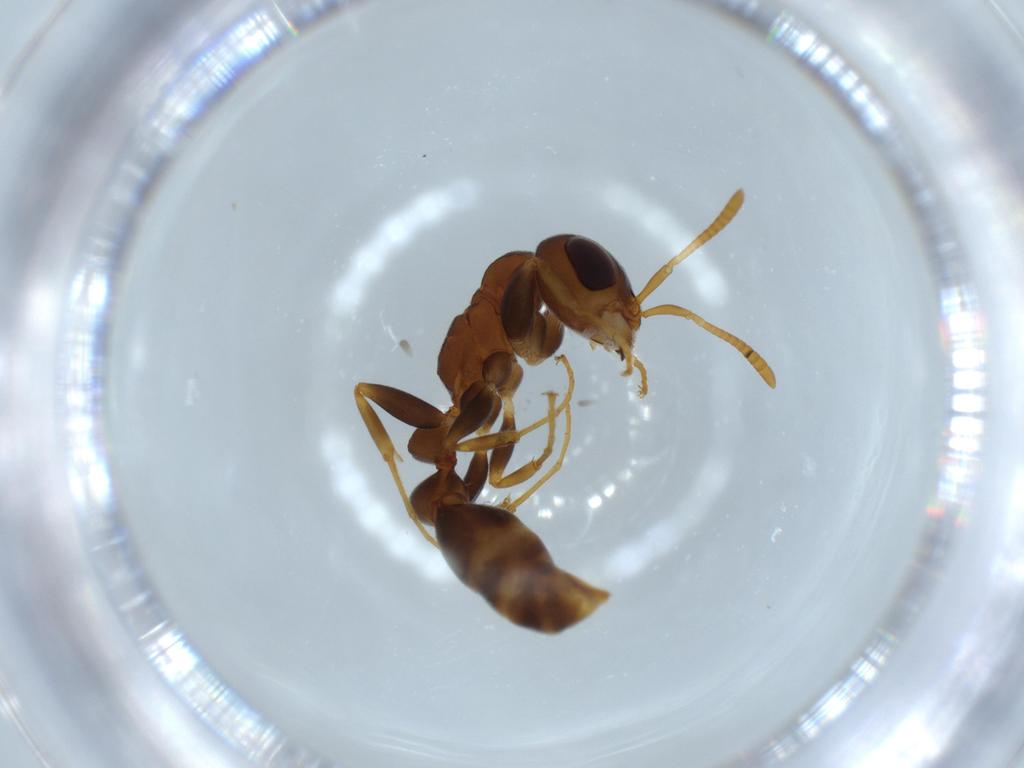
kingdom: Animalia
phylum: Arthropoda
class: Insecta
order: Hymenoptera
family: Formicidae
